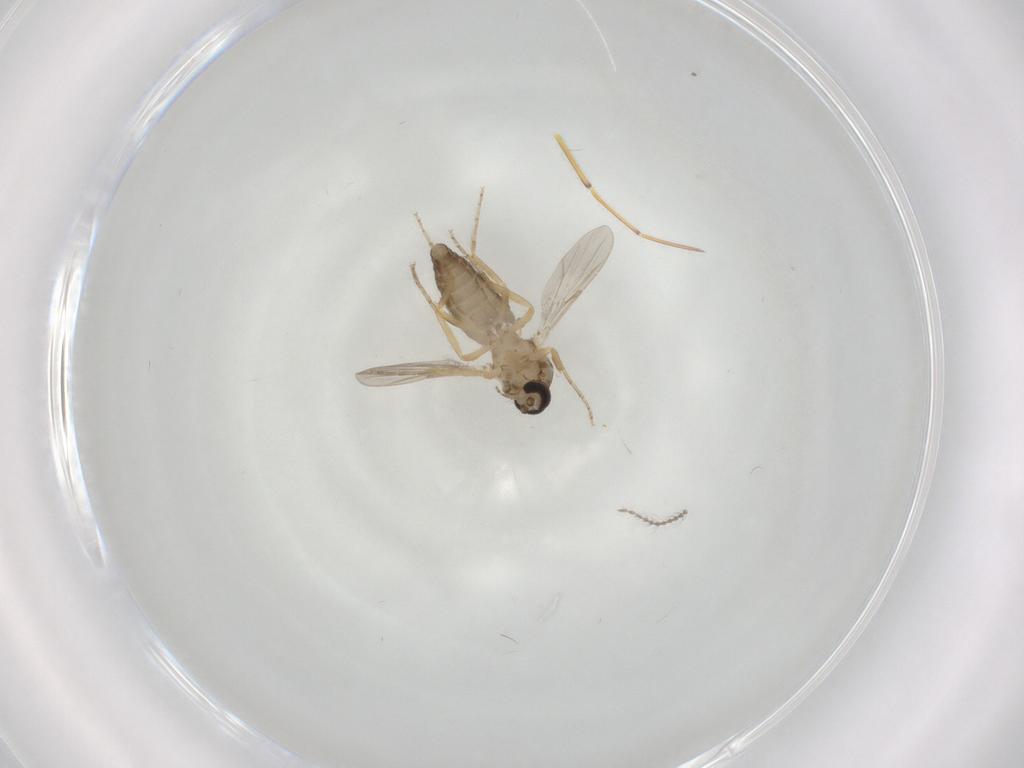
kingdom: Animalia
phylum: Arthropoda
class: Insecta
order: Diptera
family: Ceratopogonidae
